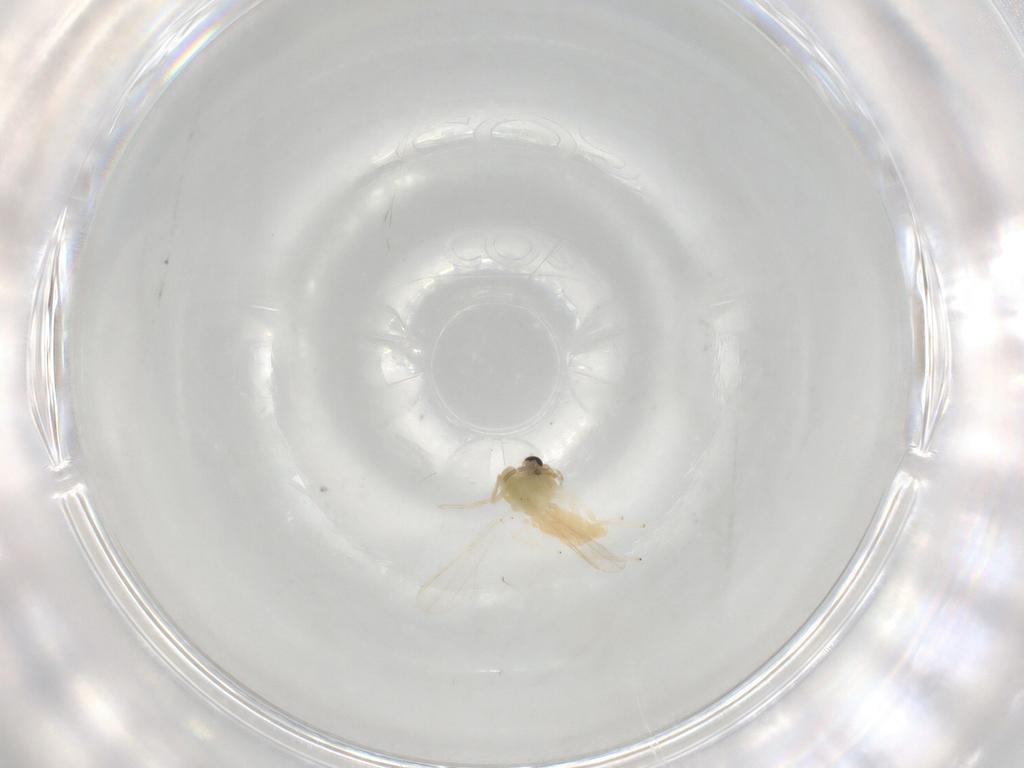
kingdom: Animalia
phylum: Arthropoda
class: Insecta
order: Diptera
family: Chironomidae
